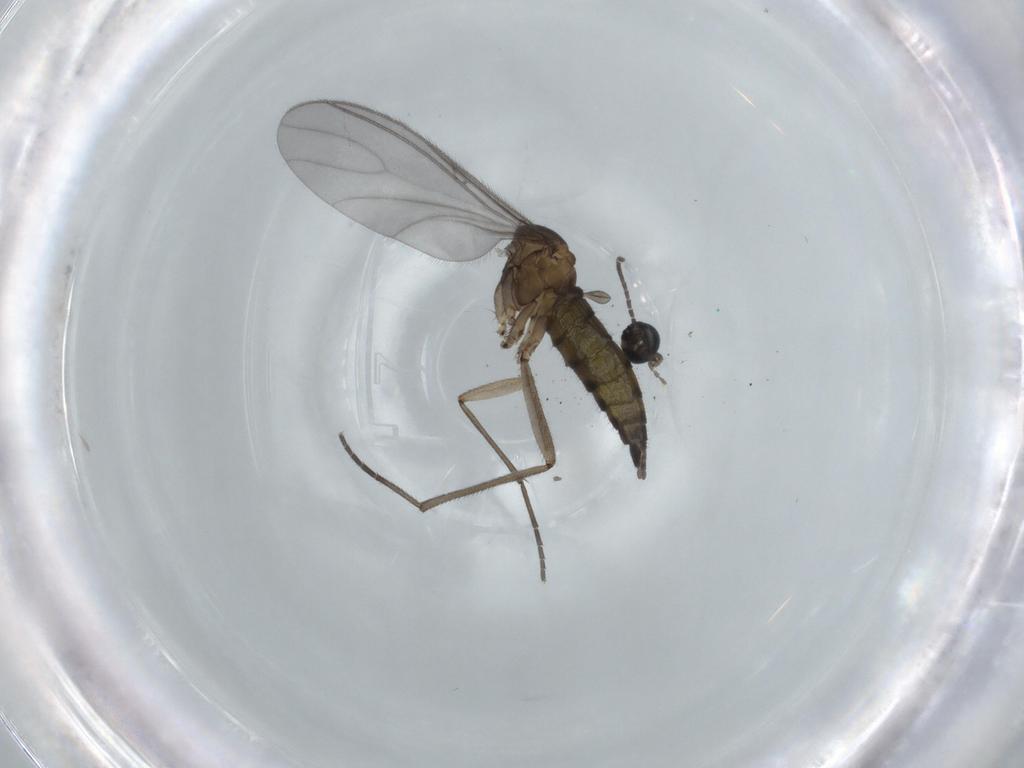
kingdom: Animalia
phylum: Arthropoda
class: Insecta
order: Diptera
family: Sciaridae
